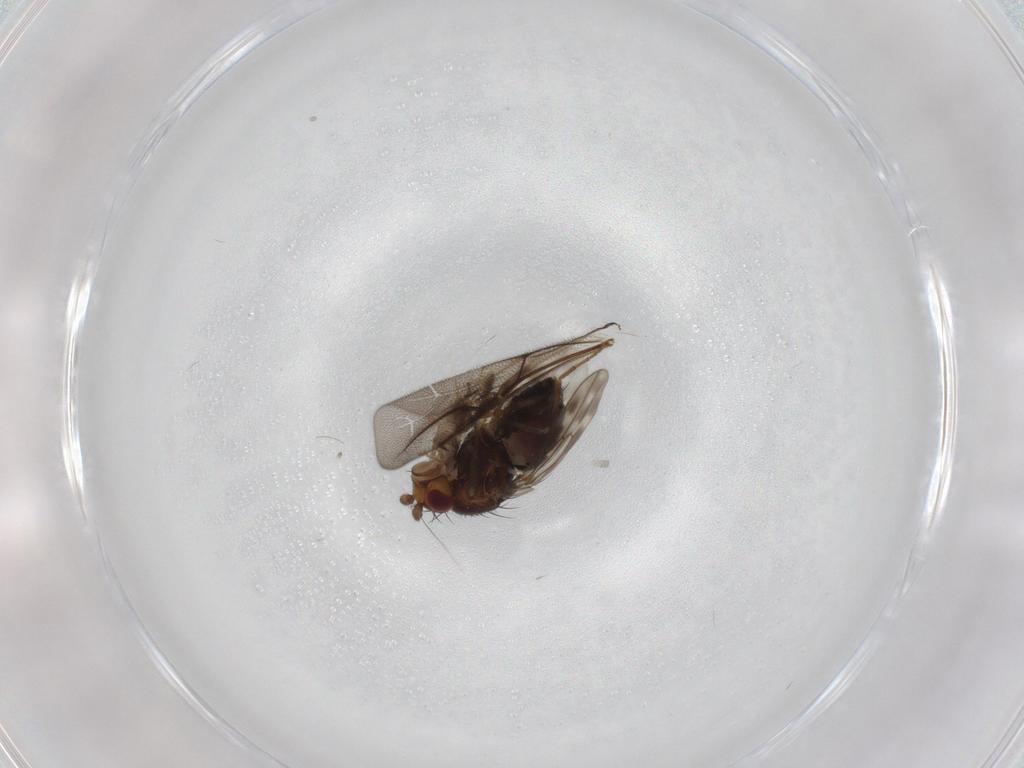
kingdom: Animalia
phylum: Arthropoda
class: Insecta
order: Diptera
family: Sphaeroceridae
